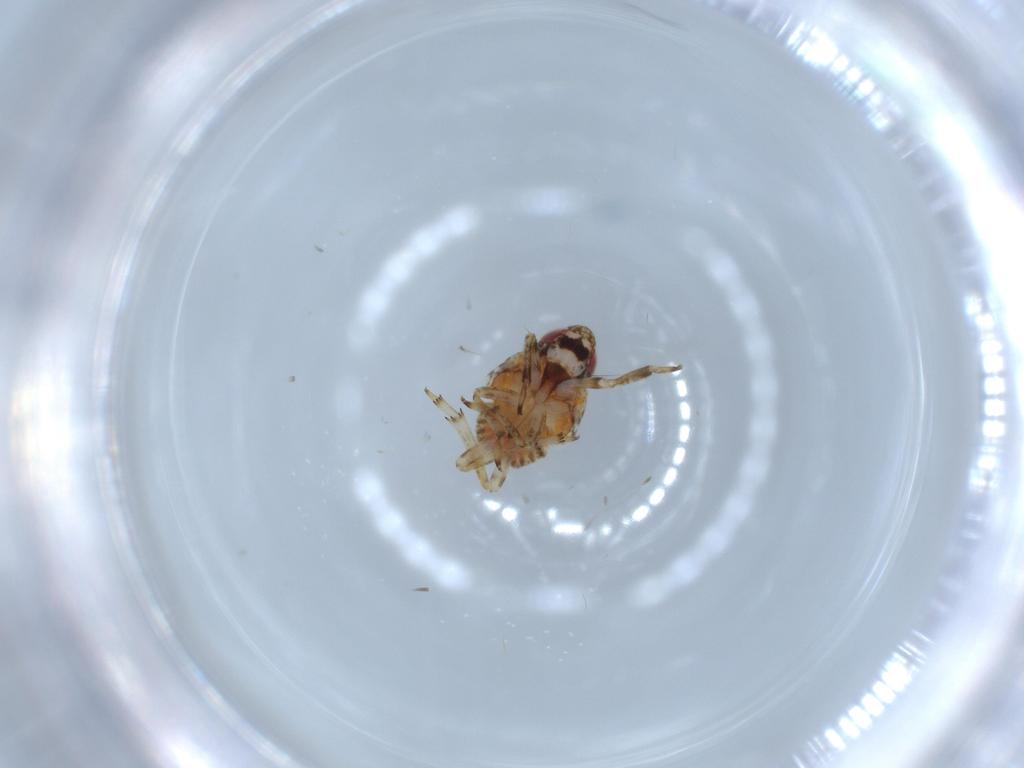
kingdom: Animalia
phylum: Arthropoda
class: Insecta
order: Hemiptera
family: Issidae
